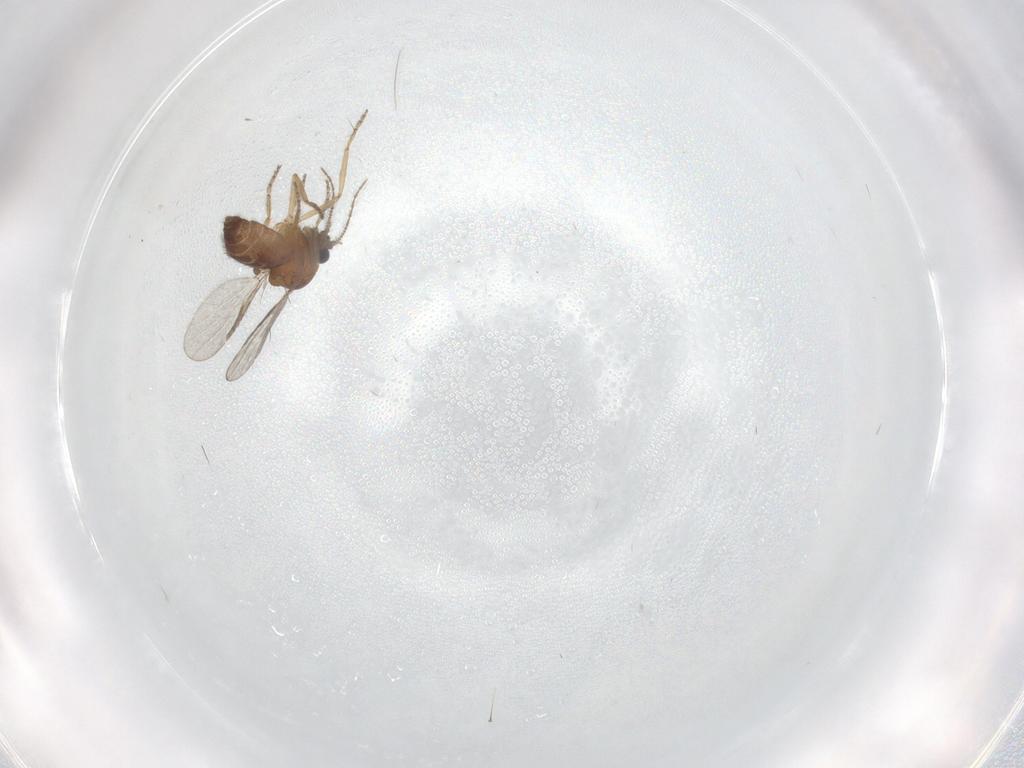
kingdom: Animalia
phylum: Arthropoda
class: Insecta
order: Diptera
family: Ceratopogonidae
